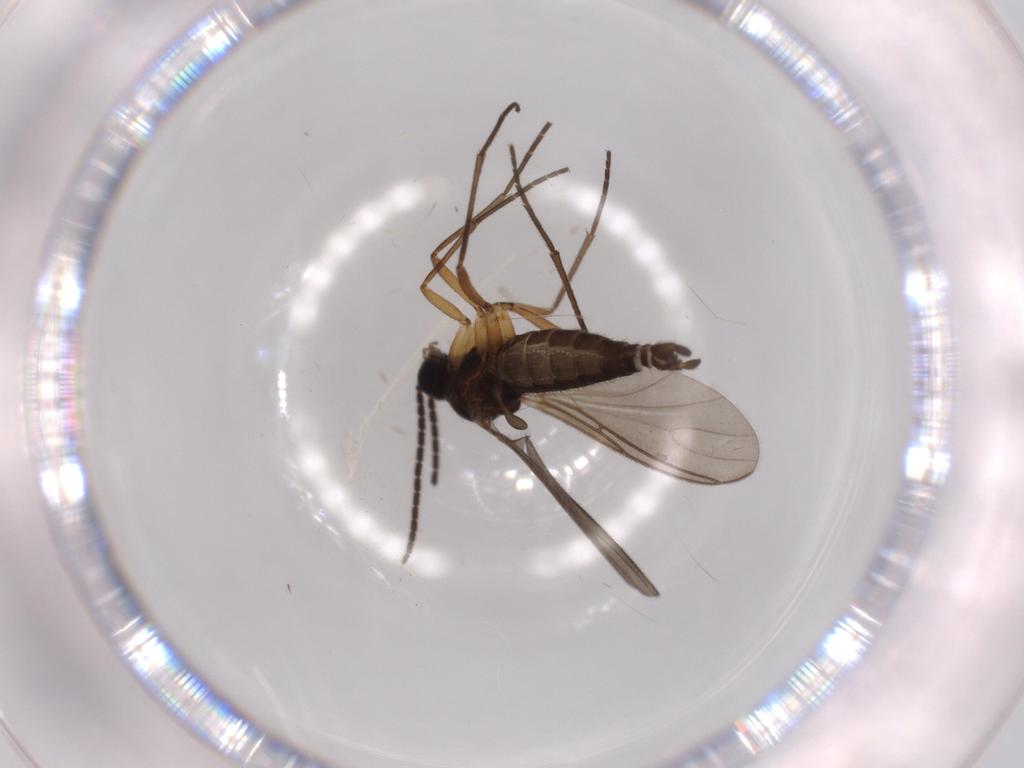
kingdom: Animalia
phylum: Arthropoda
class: Insecta
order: Diptera
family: Sciaridae
